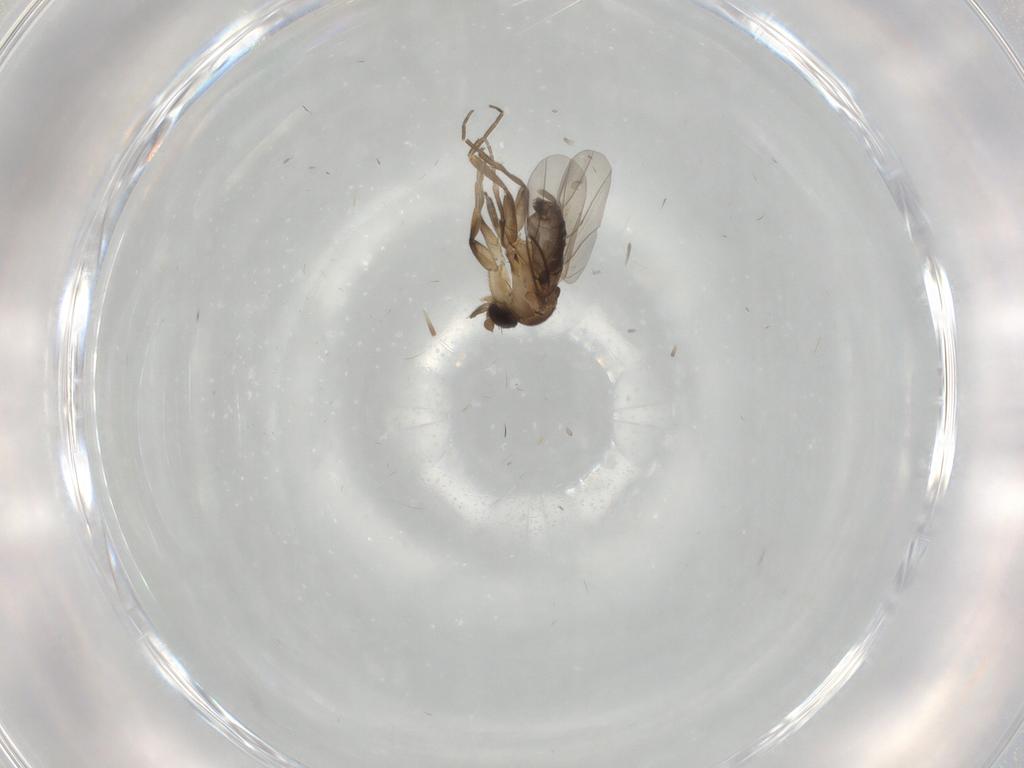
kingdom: Animalia
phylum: Arthropoda
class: Insecta
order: Diptera
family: Phoridae
